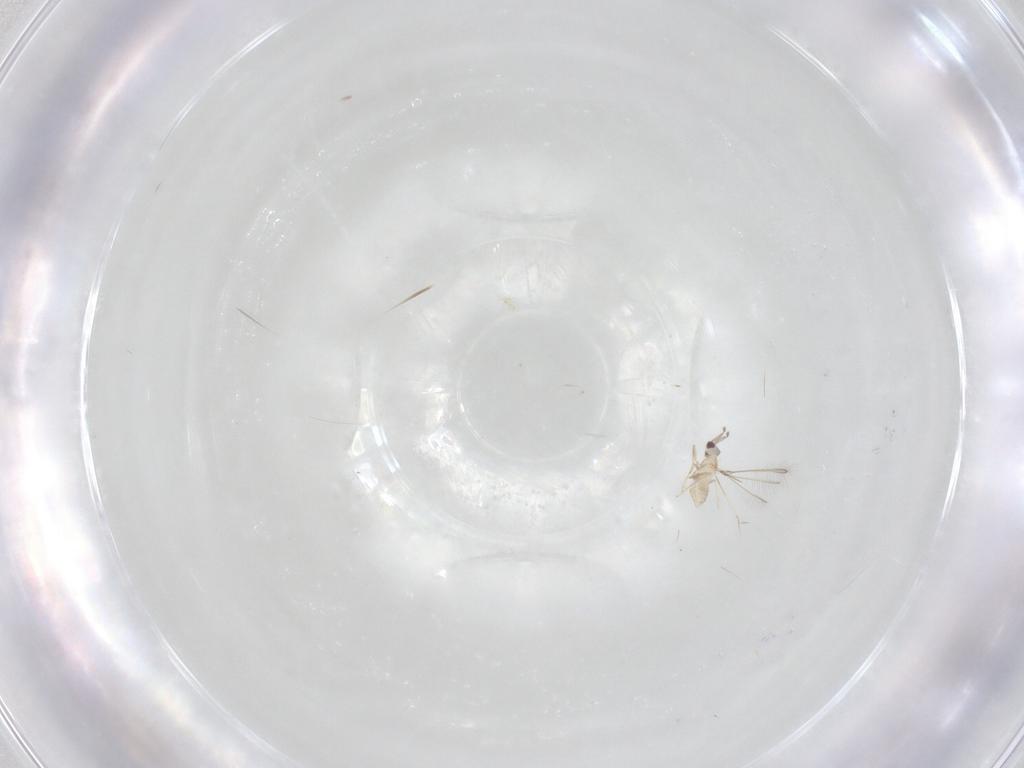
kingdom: Animalia
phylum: Arthropoda
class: Insecta
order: Lepidoptera
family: Lecithoceridae
